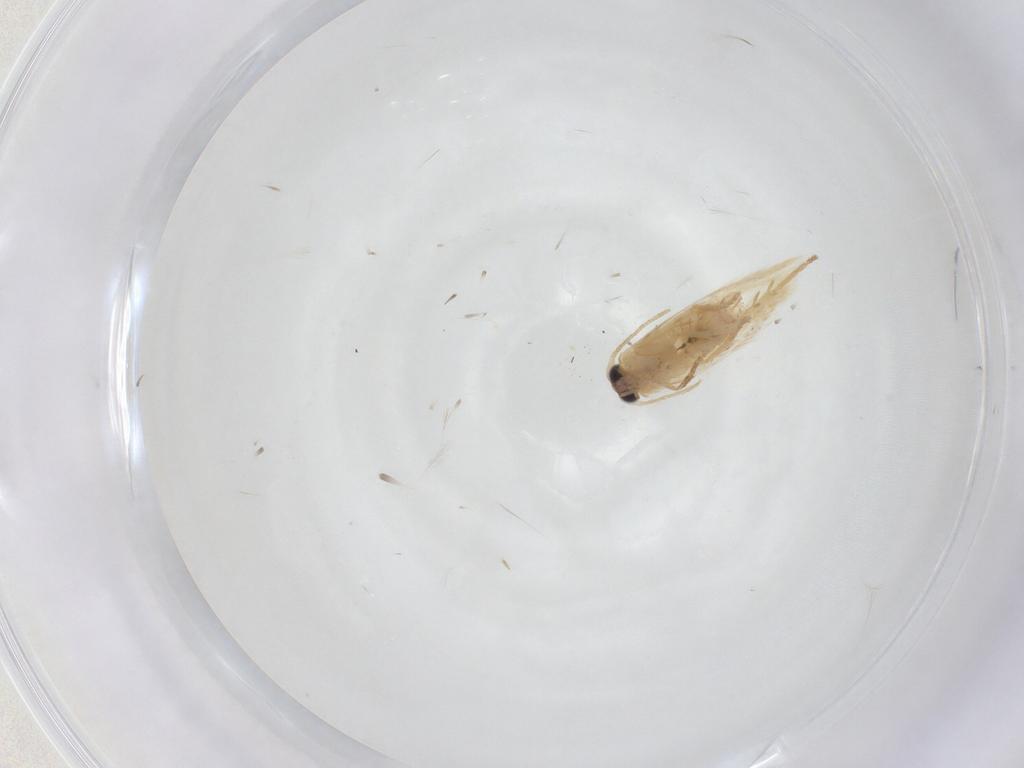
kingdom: Animalia
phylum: Arthropoda
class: Insecta
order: Lepidoptera
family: Nepticulidae
